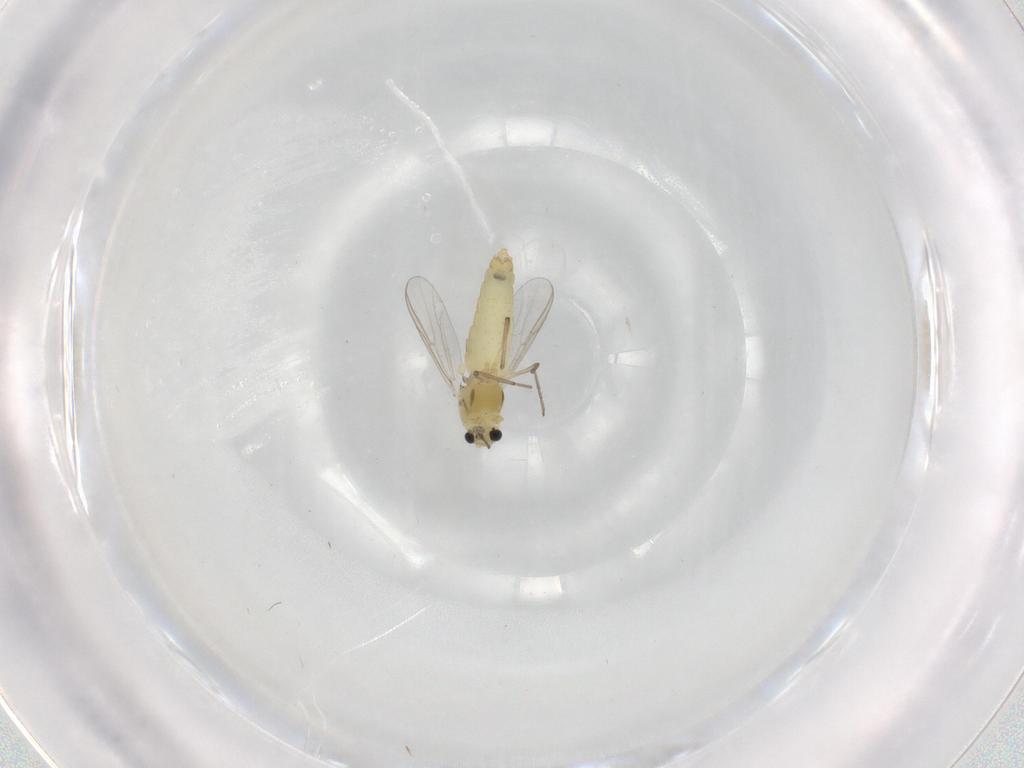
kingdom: Animalia
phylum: Arthropoda
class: Insecta
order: Diptera
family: Chironomidae
